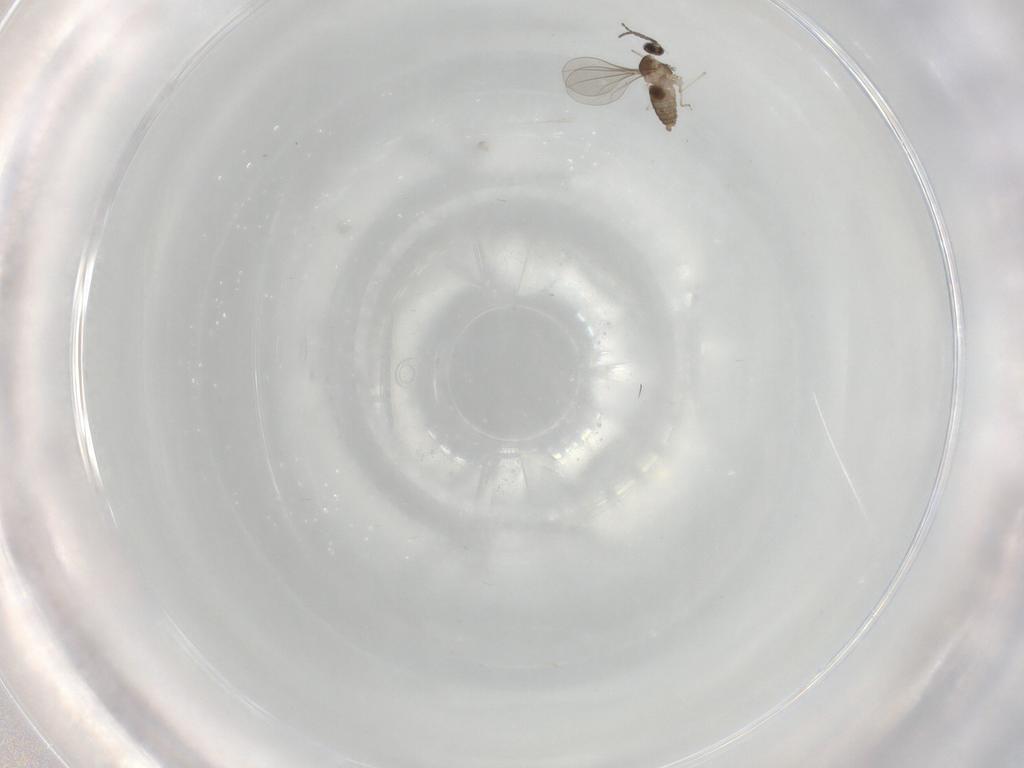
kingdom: Animalia
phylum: Arthropoda
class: Insecta
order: Diptera
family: Cecidomyiidae
